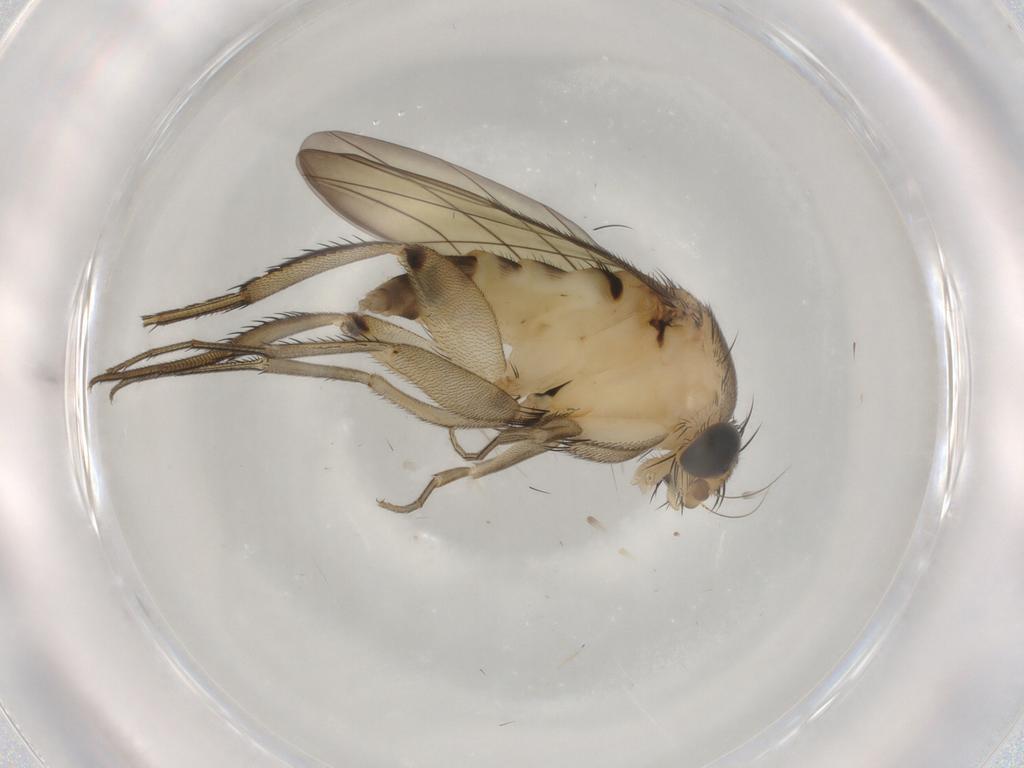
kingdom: Animalia
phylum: Arthropoda
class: Insecta
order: Diptera
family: Phoridae
